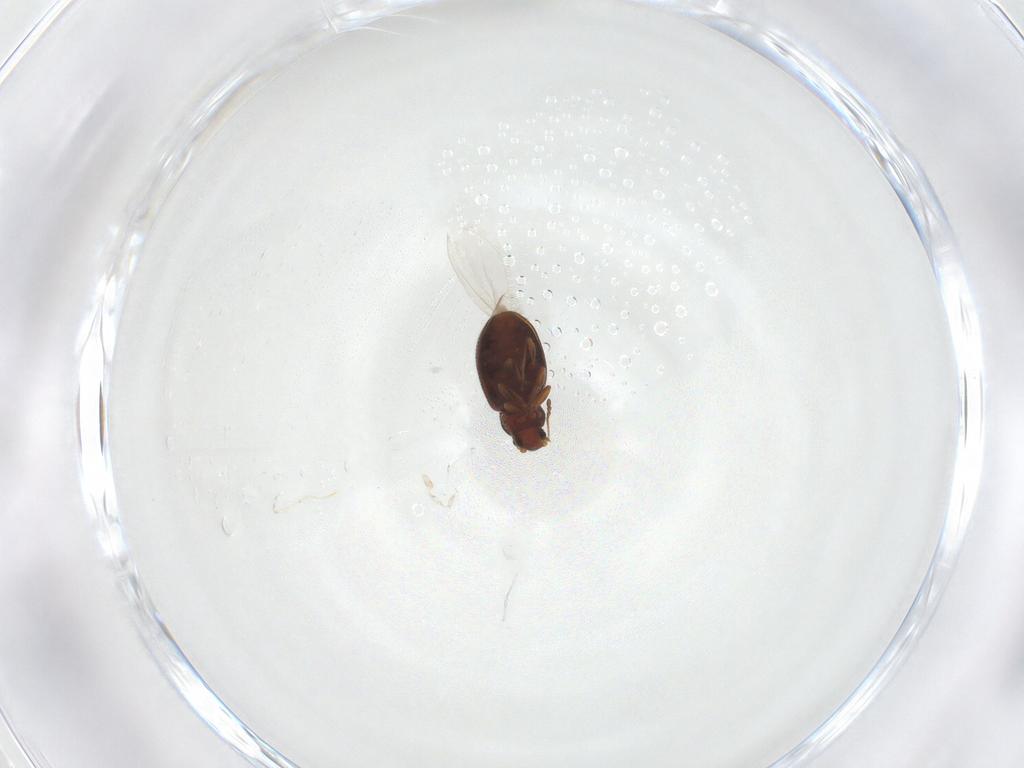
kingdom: Animalia
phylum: Arthropoda
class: Insecta
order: Coleoptera
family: Latridiidae
